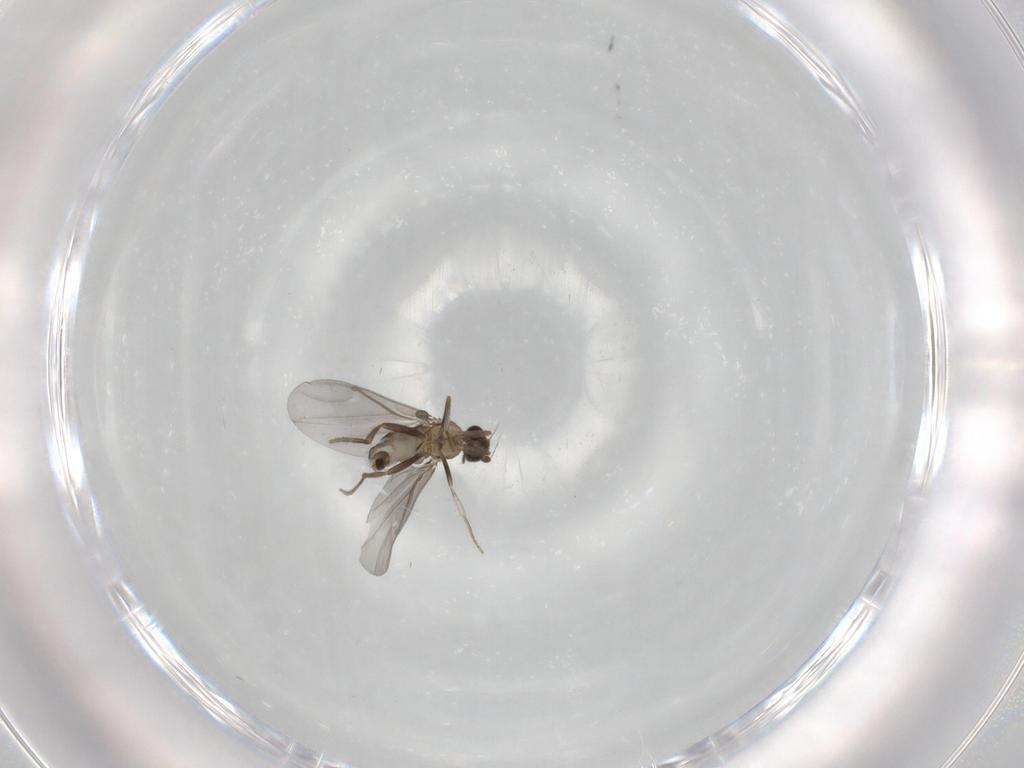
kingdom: Animalia
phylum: Arthropoda
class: Insecta
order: Diptera
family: Phoridae
